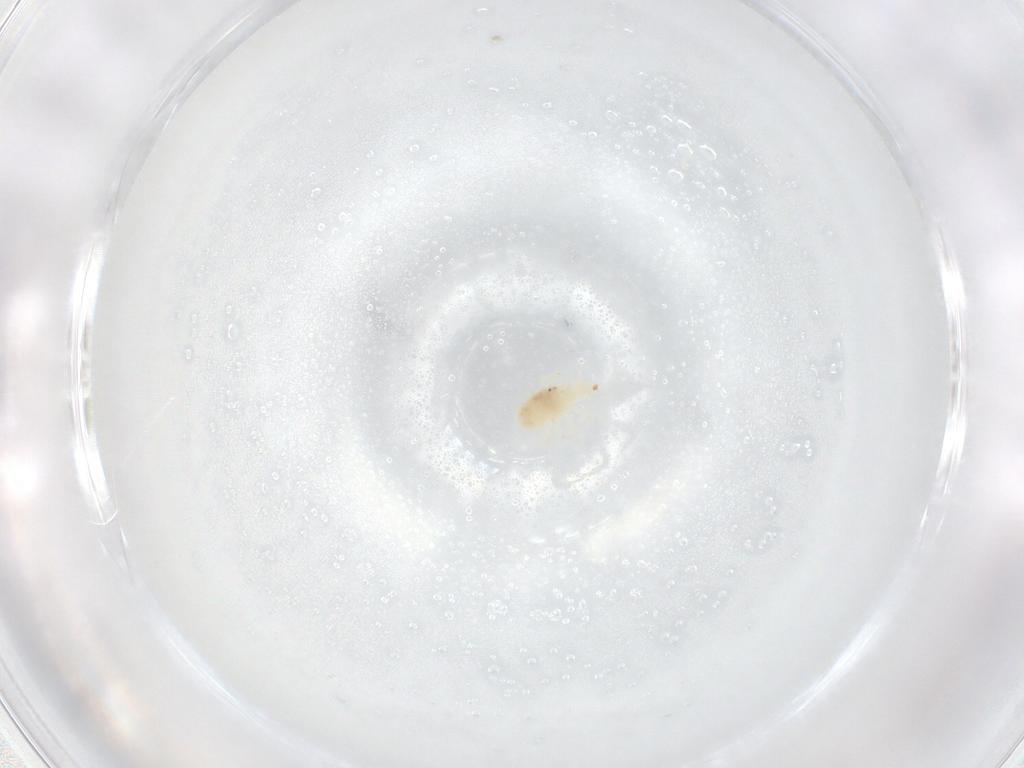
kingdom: Animalia
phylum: Arthropoda
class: Arachnida
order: Trombidiformes
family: Bdellidae
